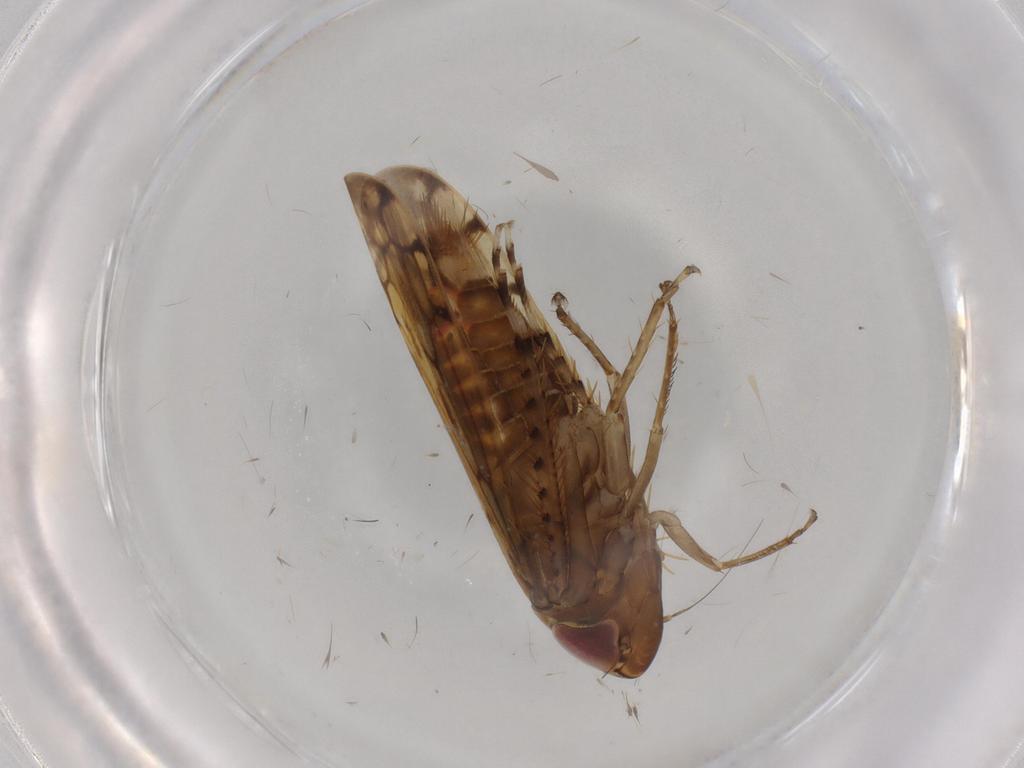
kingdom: Animalia
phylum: Arthropoda
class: Insecta
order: Hemiptera
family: Cicadellidae
